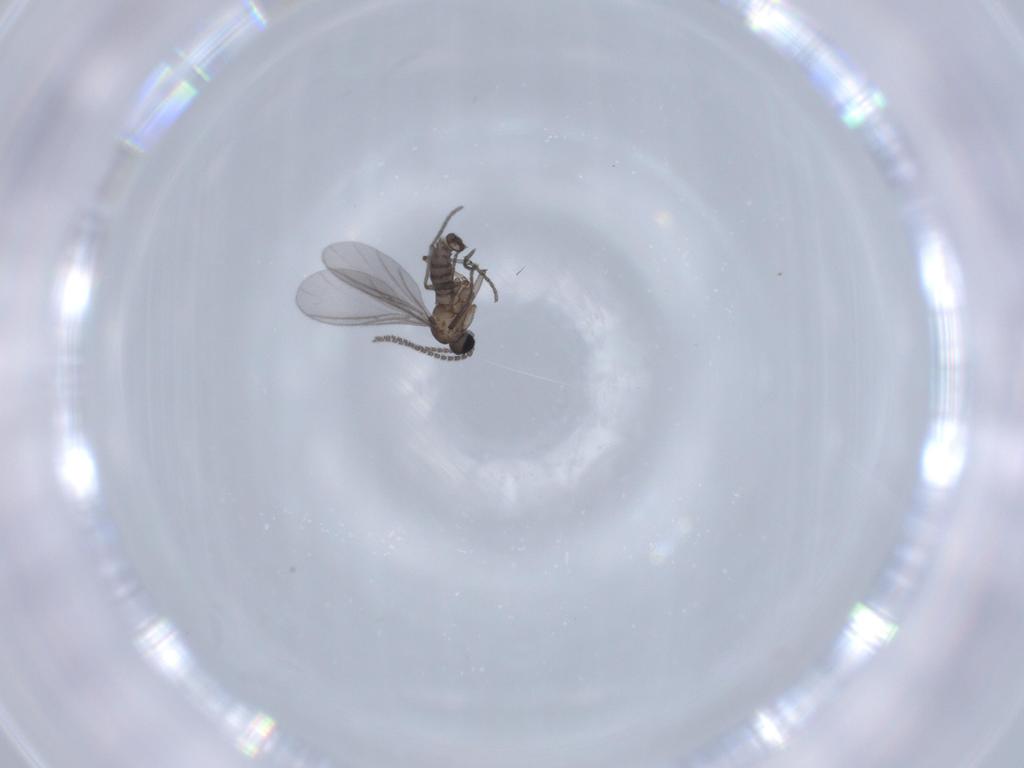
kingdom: Animalia
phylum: Arthropoda
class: Insecta
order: Diptera
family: Sciaridae
